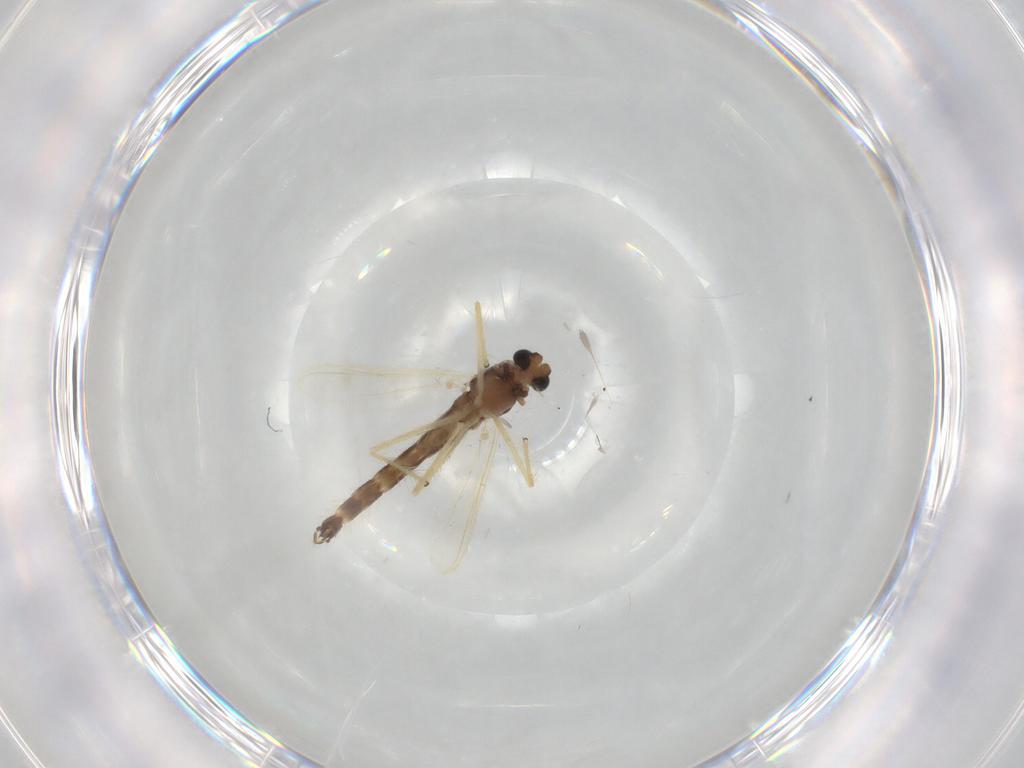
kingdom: Animalia
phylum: Arthropoda
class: Insecta
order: Diptera
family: Chironomidae
